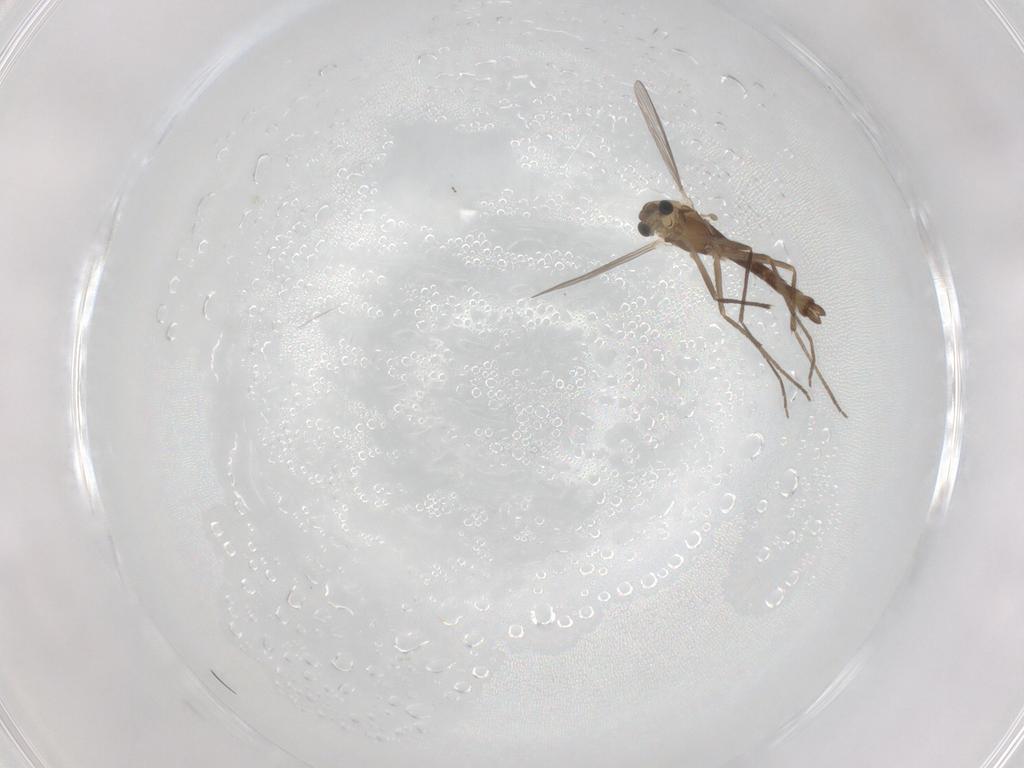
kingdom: Animalia
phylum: Arthropoda
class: Insecta
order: Diptera
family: Chironomidae
